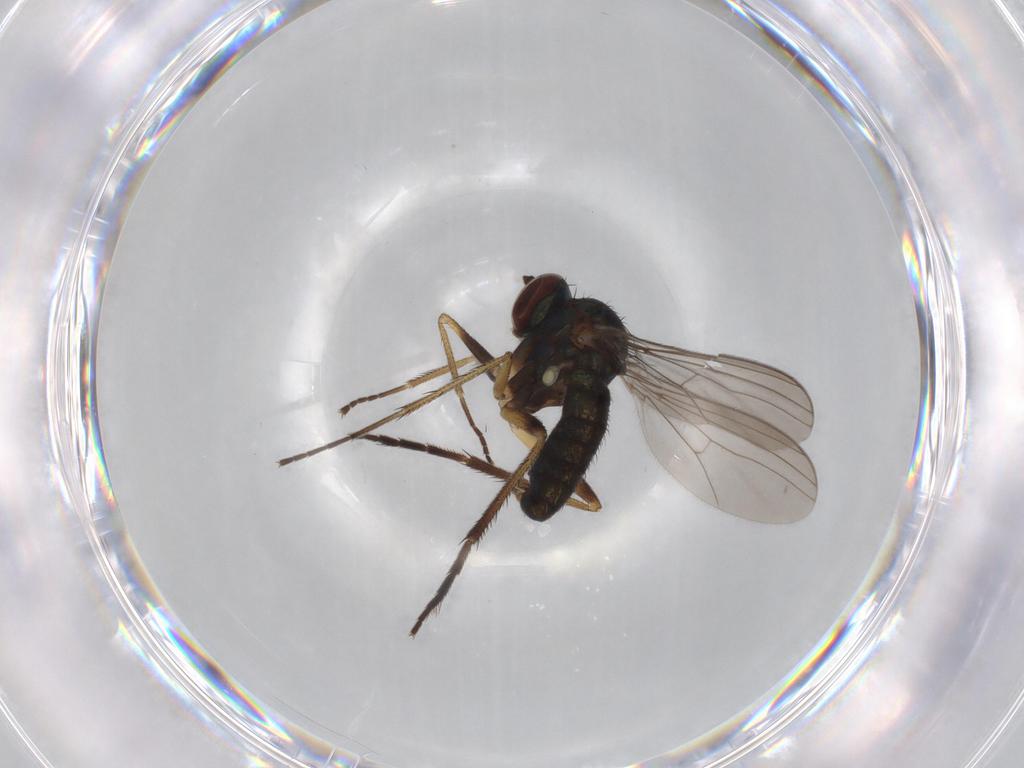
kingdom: Animalia
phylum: Arthropoda
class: Insecta
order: Diptera
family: Dolichopodidae
